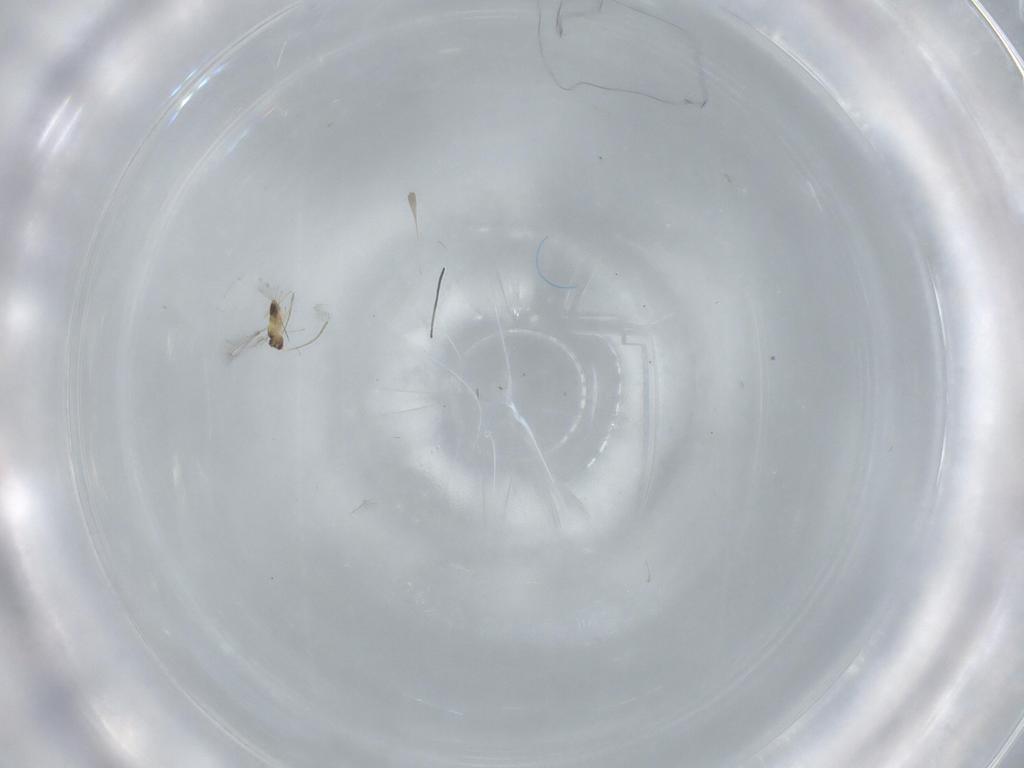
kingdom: Animalia
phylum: Arthropoda
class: Insecta
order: Hymenoptera
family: Mymaridae
